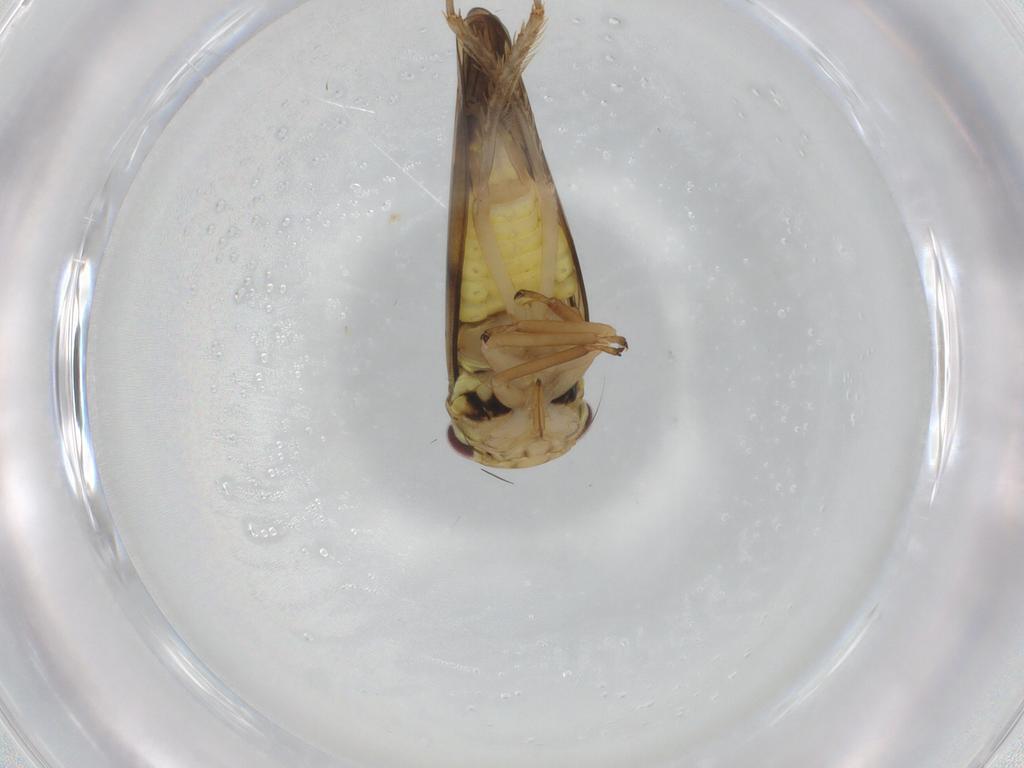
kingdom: Animalia
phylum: Arthropoda
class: Insecta
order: Hemiptera
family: Cicadellidae
